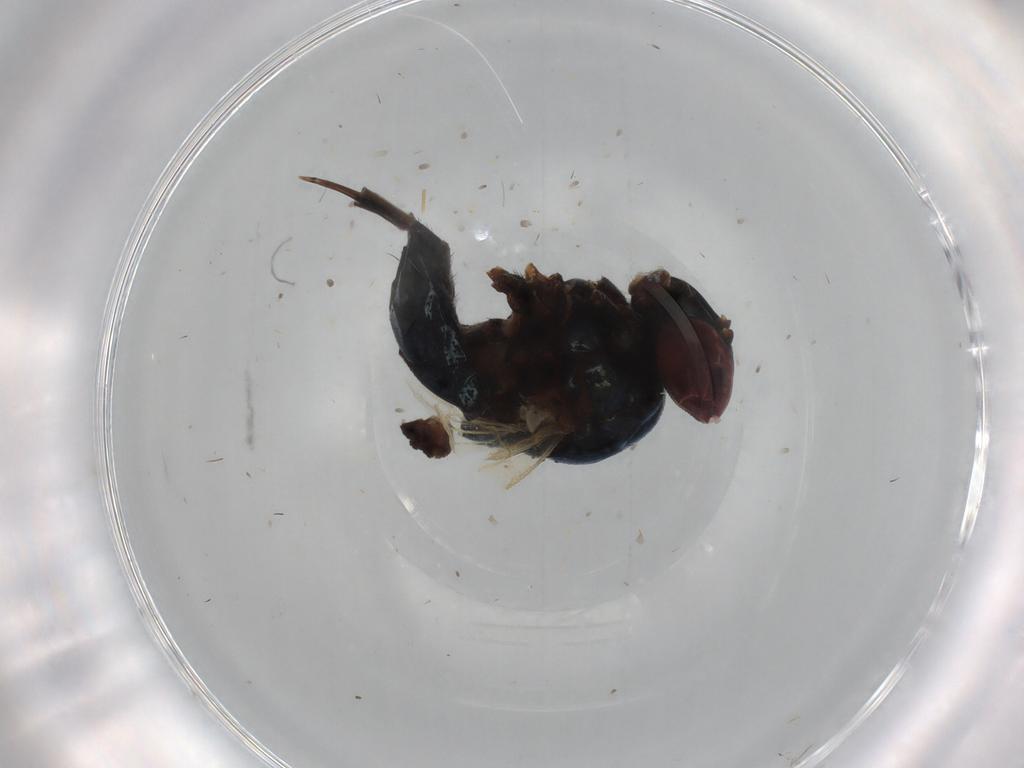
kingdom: Animalia
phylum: Arthropoda
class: Insecta
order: Diptera
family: Lonchaeidae
